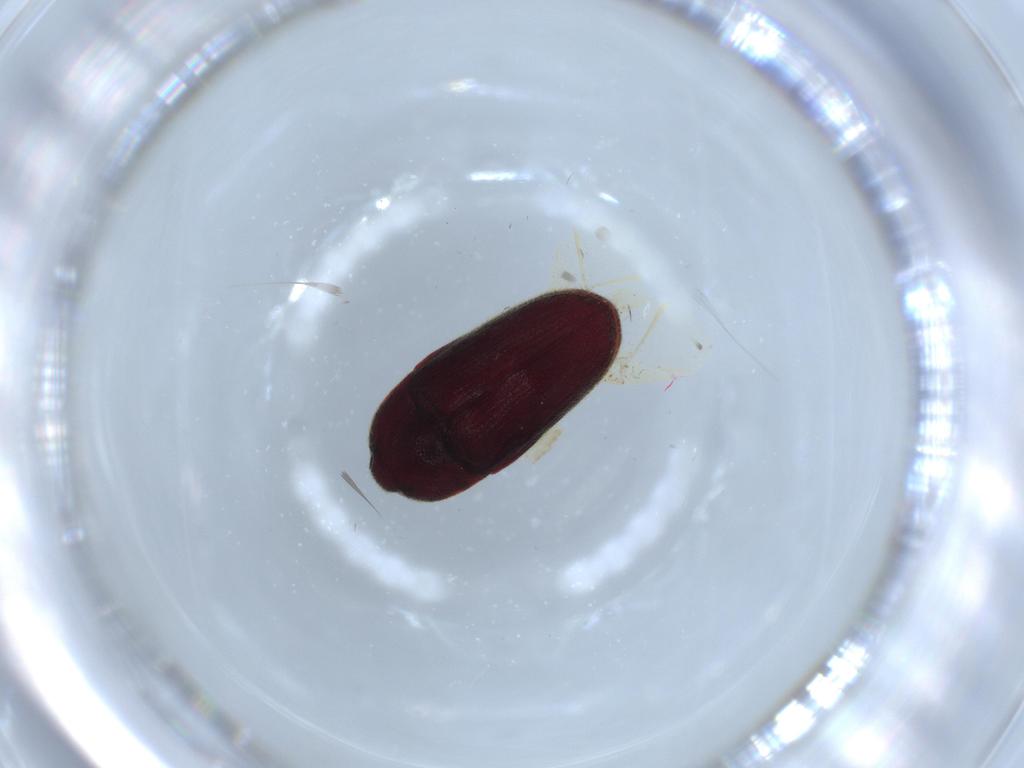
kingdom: Animalia
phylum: Arthropoda
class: Insecta
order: Coleoptera
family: Throscidae
